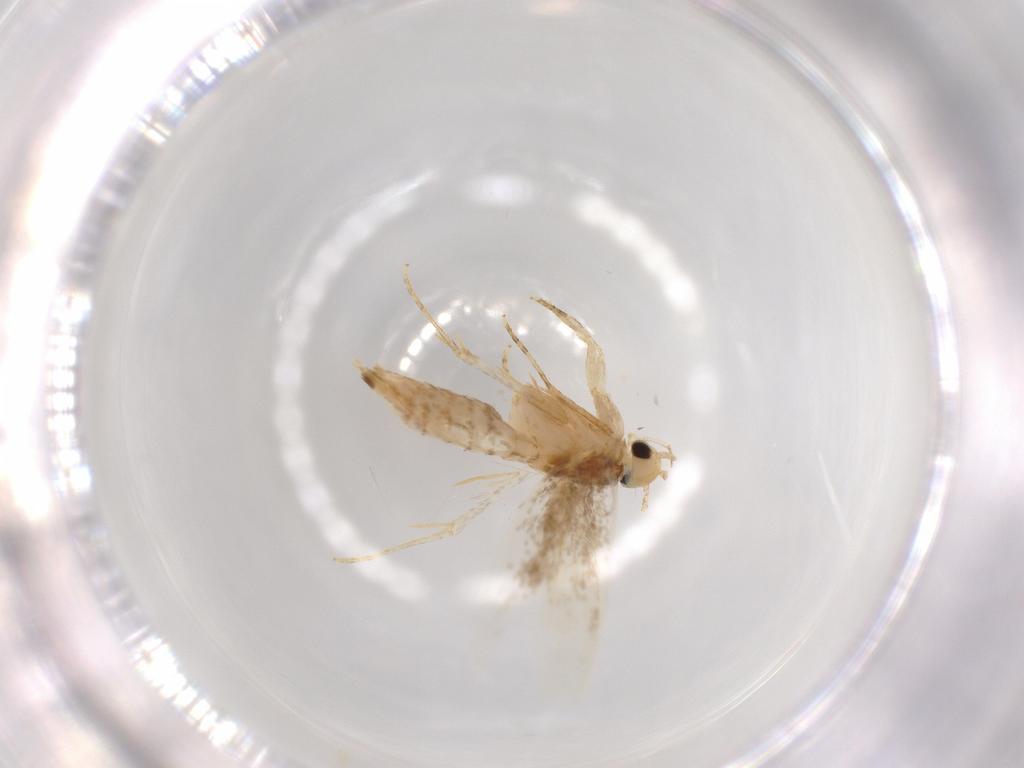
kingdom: Animalia
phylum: Arthropoda
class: Insecta
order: Lepidoptera
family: Tineidae
